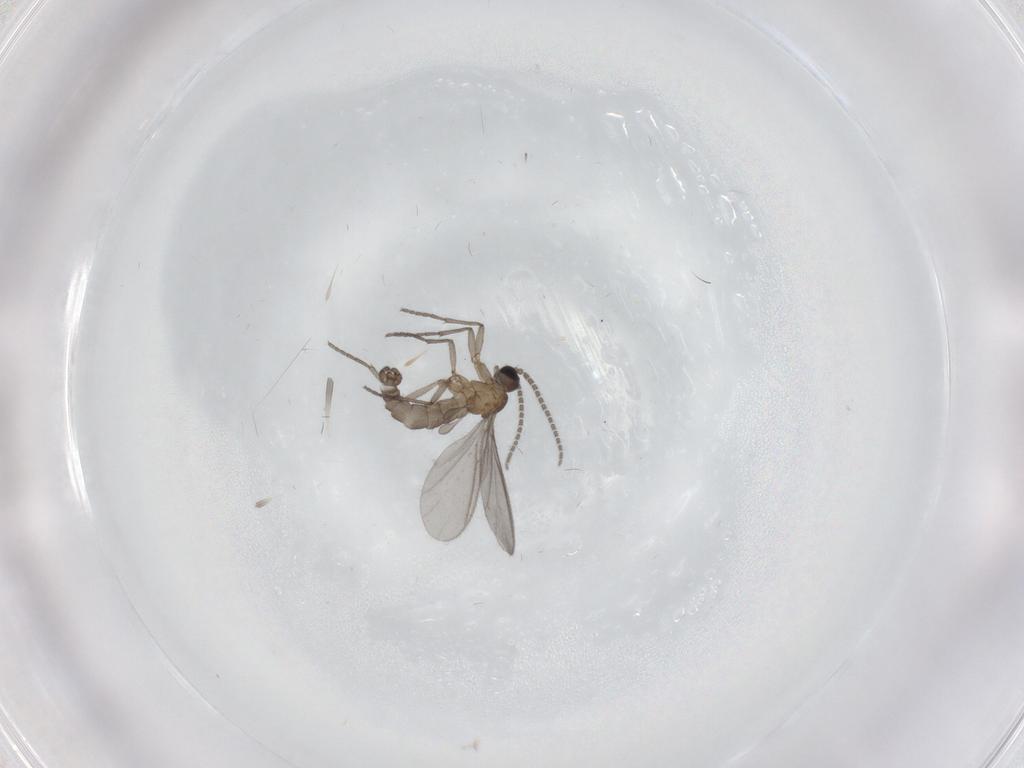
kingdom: Animalia
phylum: Arthropoda
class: Insecta
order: Diptera
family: Sciaridae
